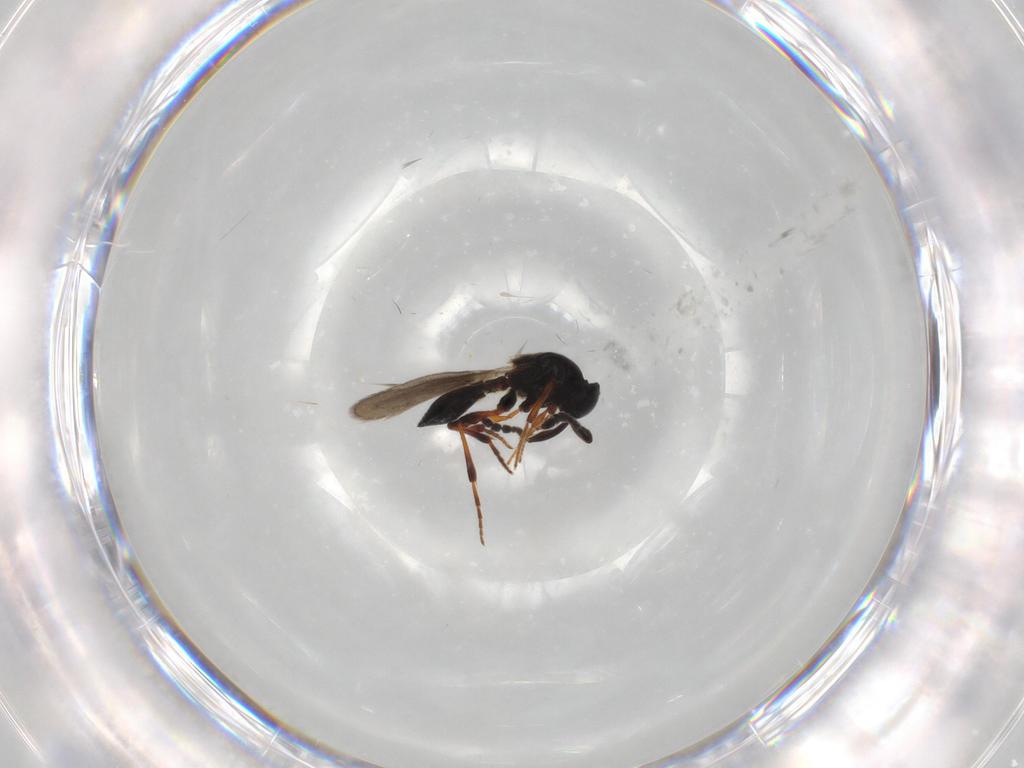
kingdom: Animalia
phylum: Arthropoda
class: Insecta
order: Hymenoptera
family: Platygastridae
